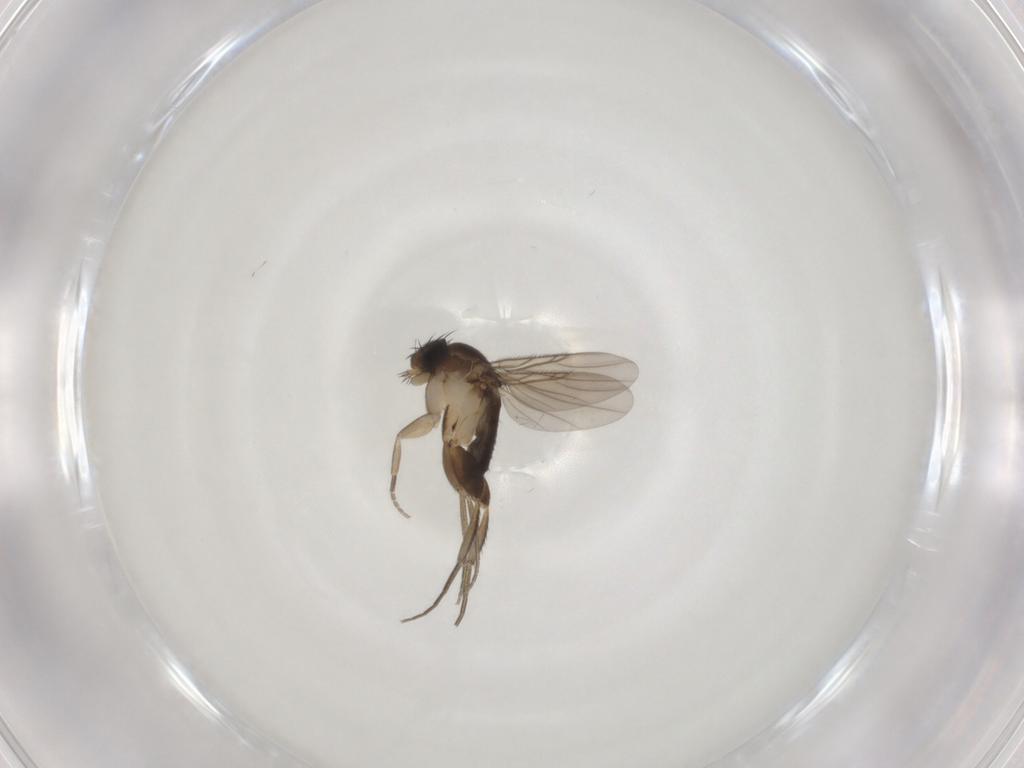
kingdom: Animalia
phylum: Arthropoda
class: Insecta
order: Diptera
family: Phoridae
